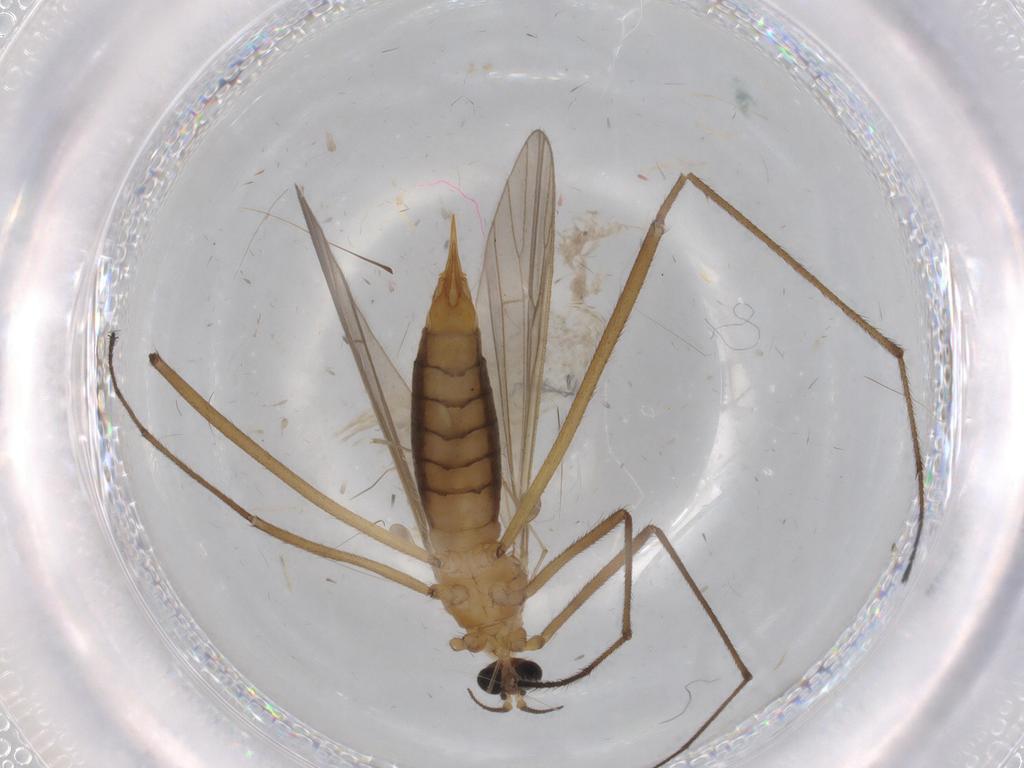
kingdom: Animalia
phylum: Arthropoda
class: Insecta
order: Diptera
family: Limoniidae
